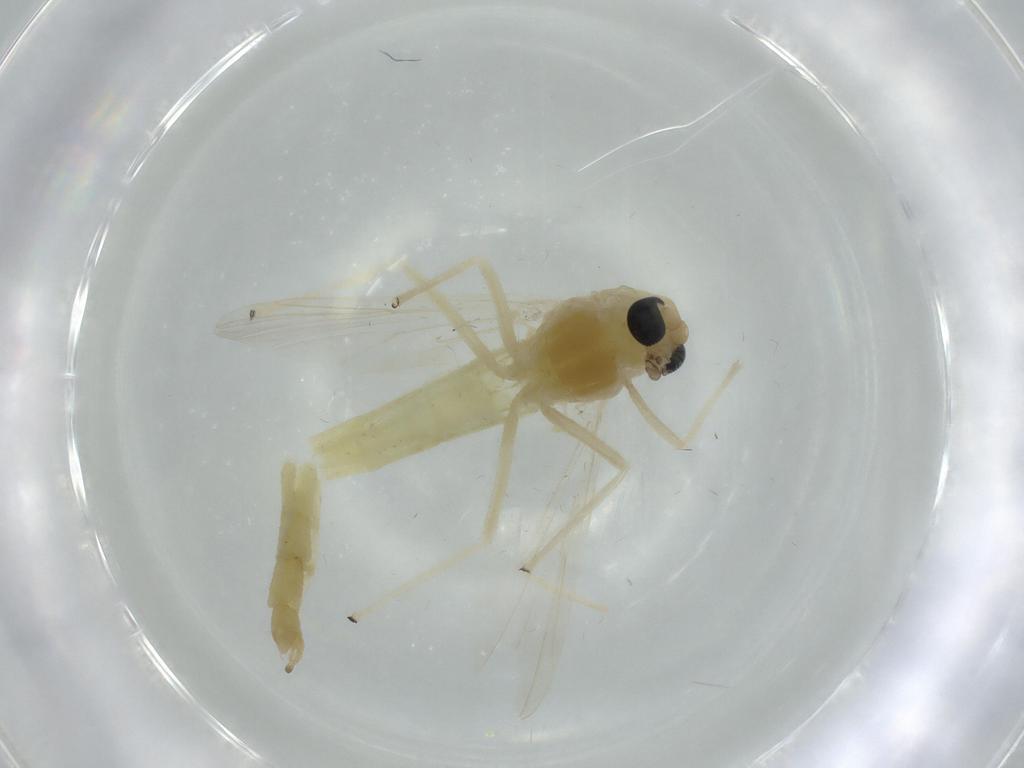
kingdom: Animalia
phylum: Arthropoda
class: Insecta
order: Diptera
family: Chironomidae
